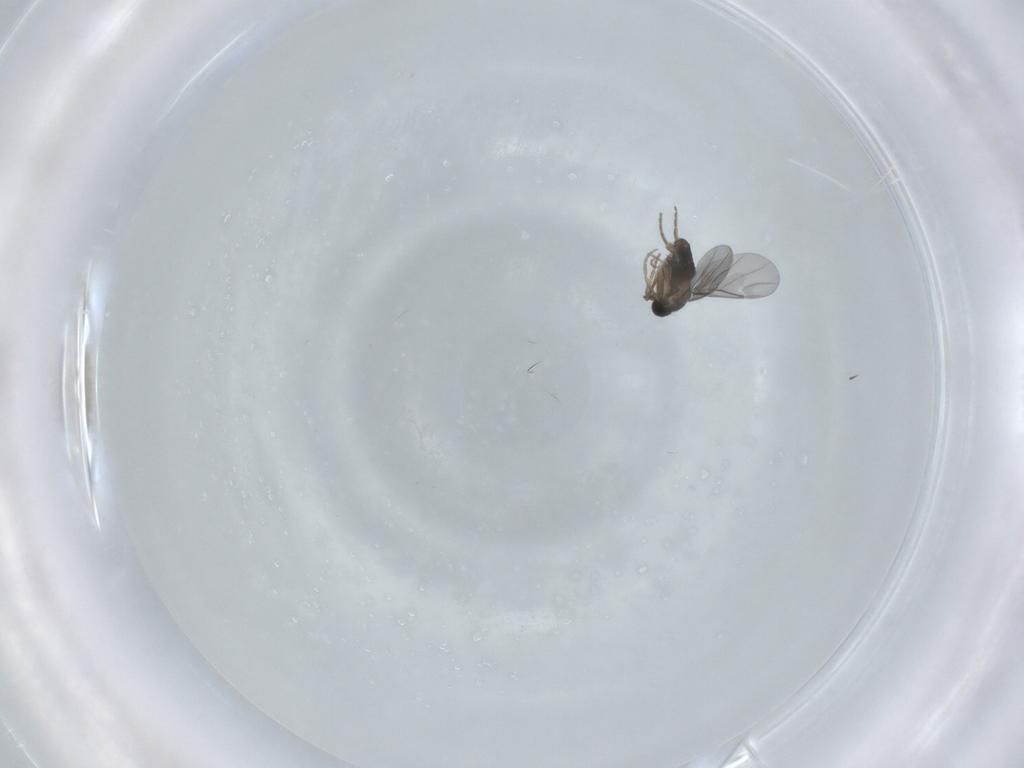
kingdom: Animalia
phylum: Arthropoda
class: Insecta
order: Diptera
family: Phoridae
